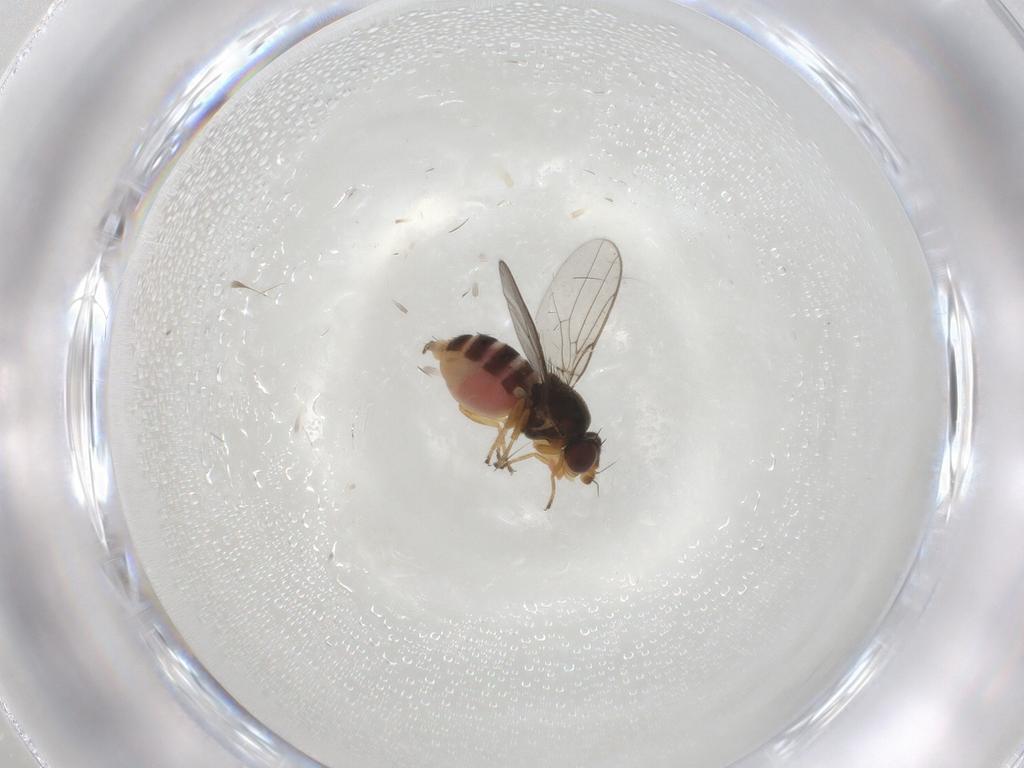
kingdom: Animalia
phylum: Arthropoda
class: Insecta
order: Diptera
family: Chloropidae
